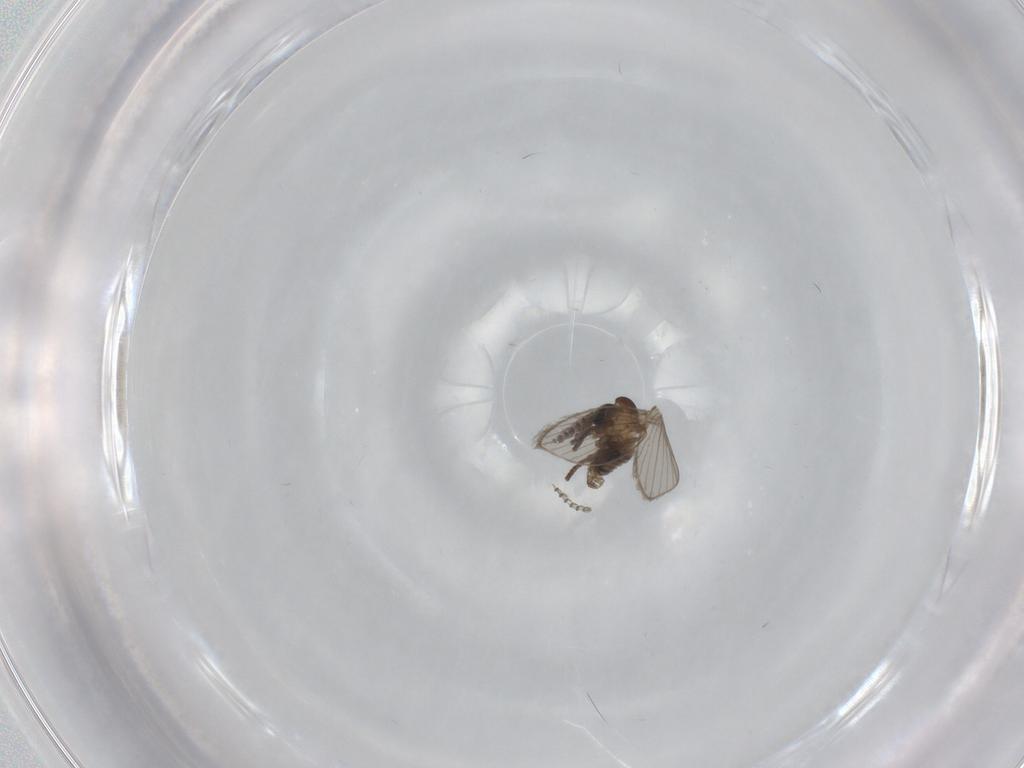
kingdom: Animalia
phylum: Arthropoda
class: Insecta
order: Diptera
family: Psychodidae
